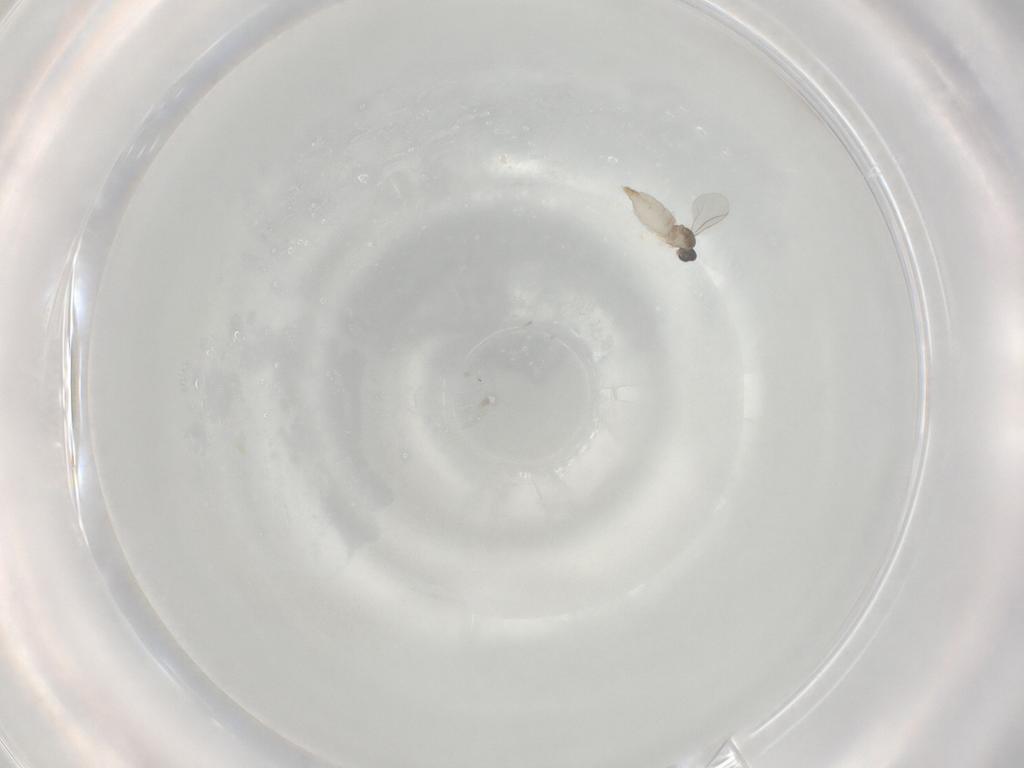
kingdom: Animalia
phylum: Arthropoda
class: Insecta
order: Diptera
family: Cecidomyiidae
